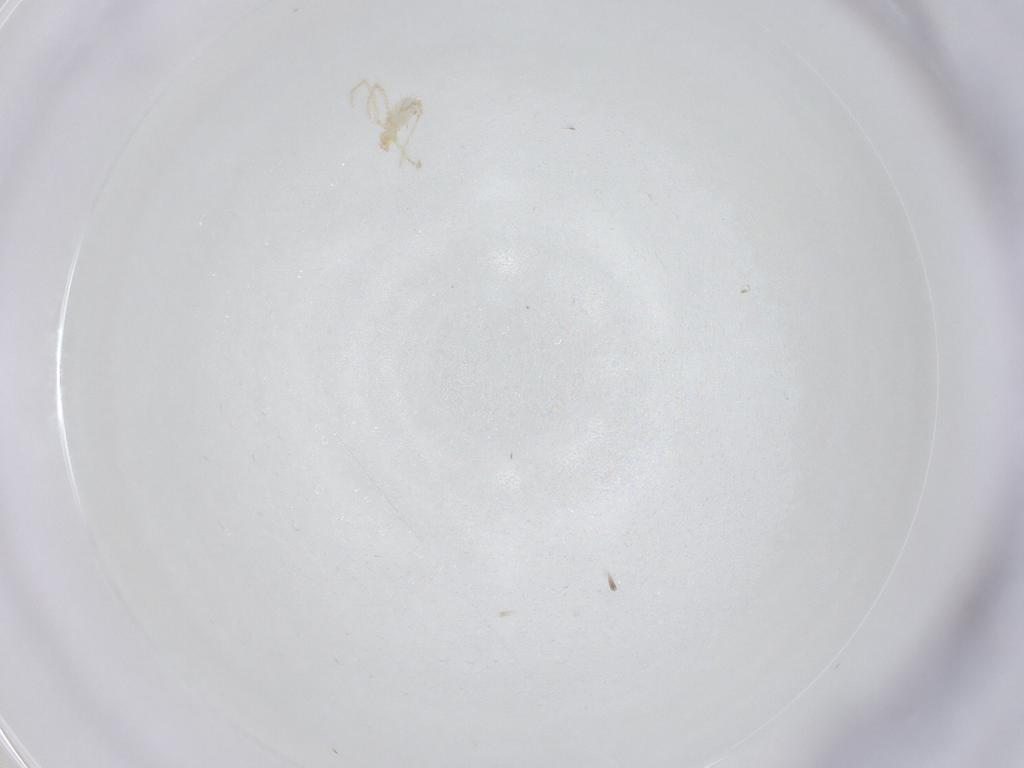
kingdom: Animalia
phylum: Arthropoda
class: Arachnida
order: Trombidiformes
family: Erythraeidae
